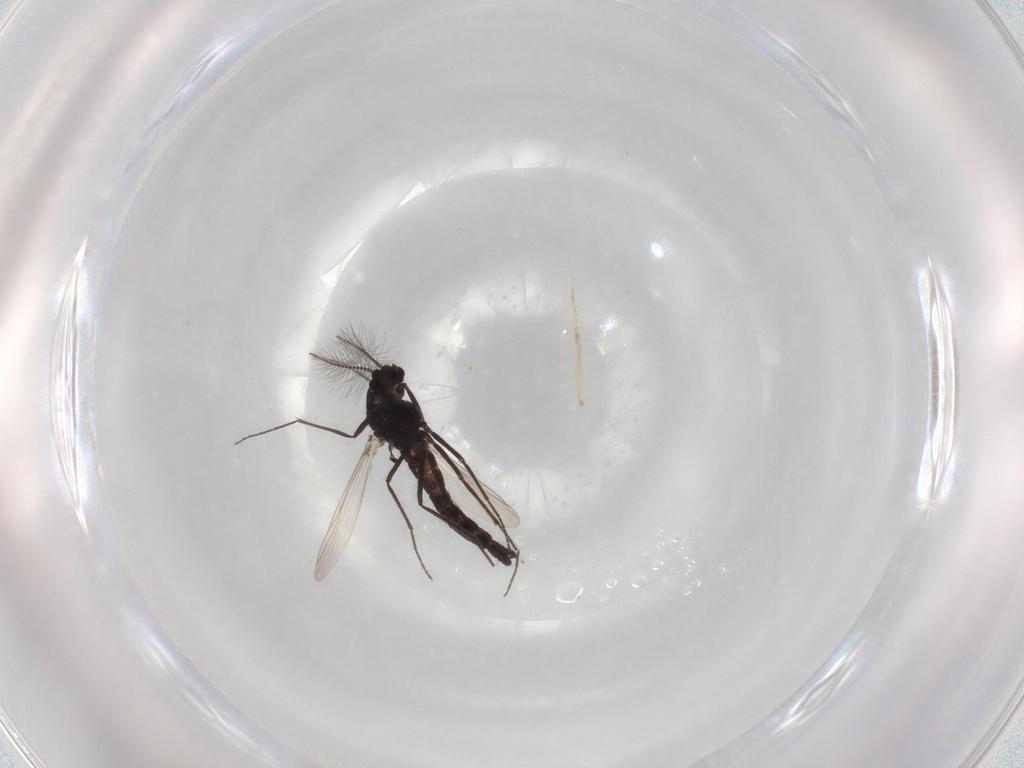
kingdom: Animalia
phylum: Arthropoda
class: Insecta
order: Diptera
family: Chironomidae
